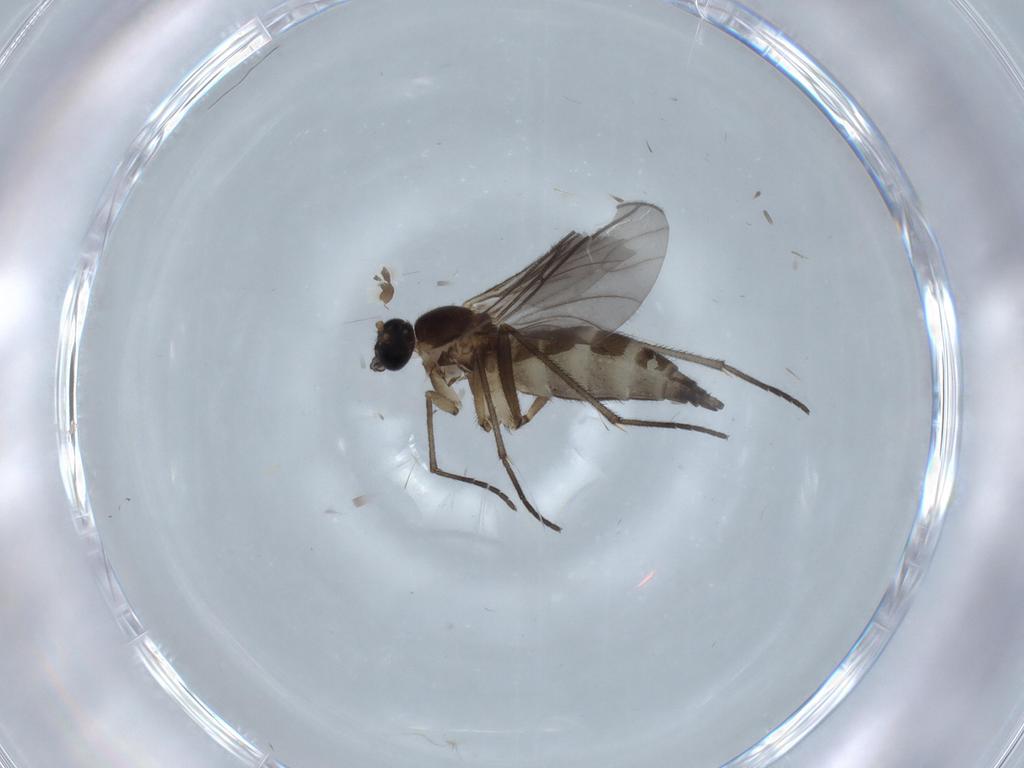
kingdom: Animalia
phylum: Arthropoda
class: Insecta
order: Diptera
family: Sciaridae
